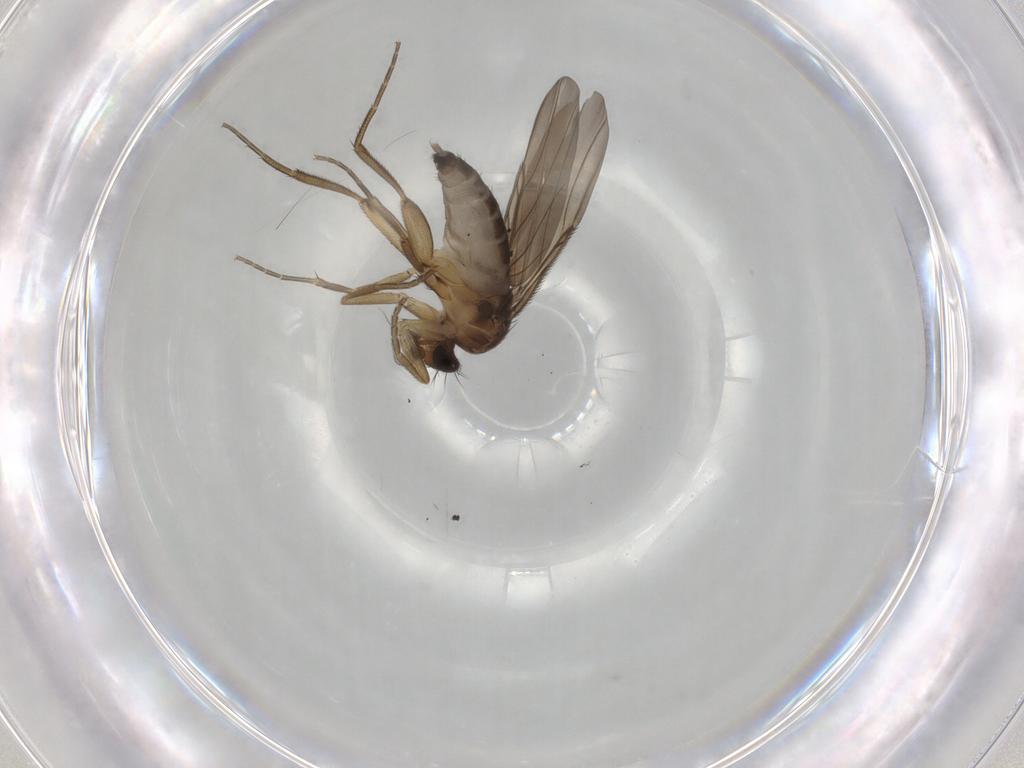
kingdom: Animalia
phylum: Arthropoda
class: Insecta
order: Diptera
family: Phoridae
